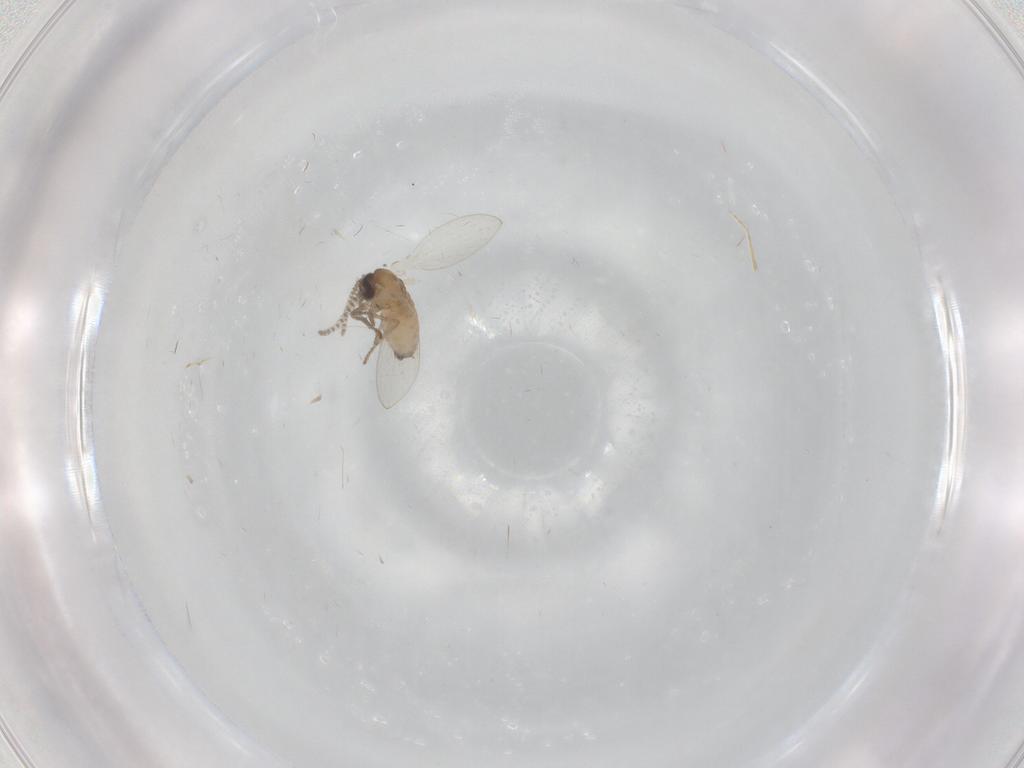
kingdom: Animalia
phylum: Arthropoda
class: Insecta
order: Diptera
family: Psychodidae
